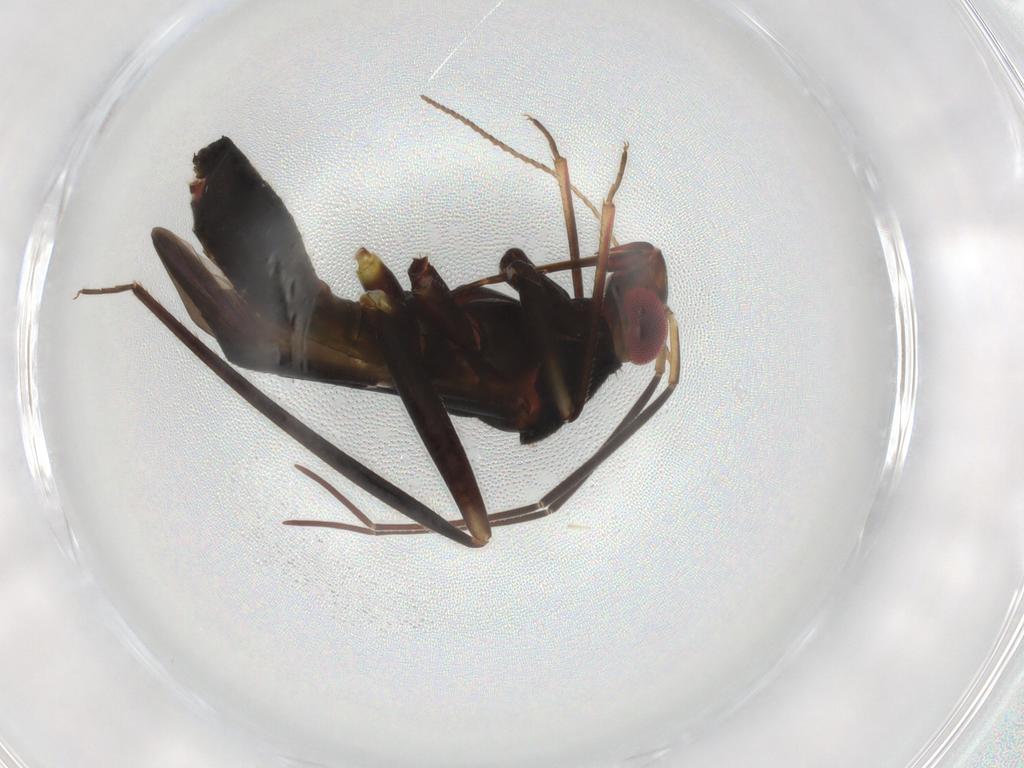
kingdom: Animalia
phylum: Arthropoda
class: Insecta
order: Hemiptera
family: Miridae
